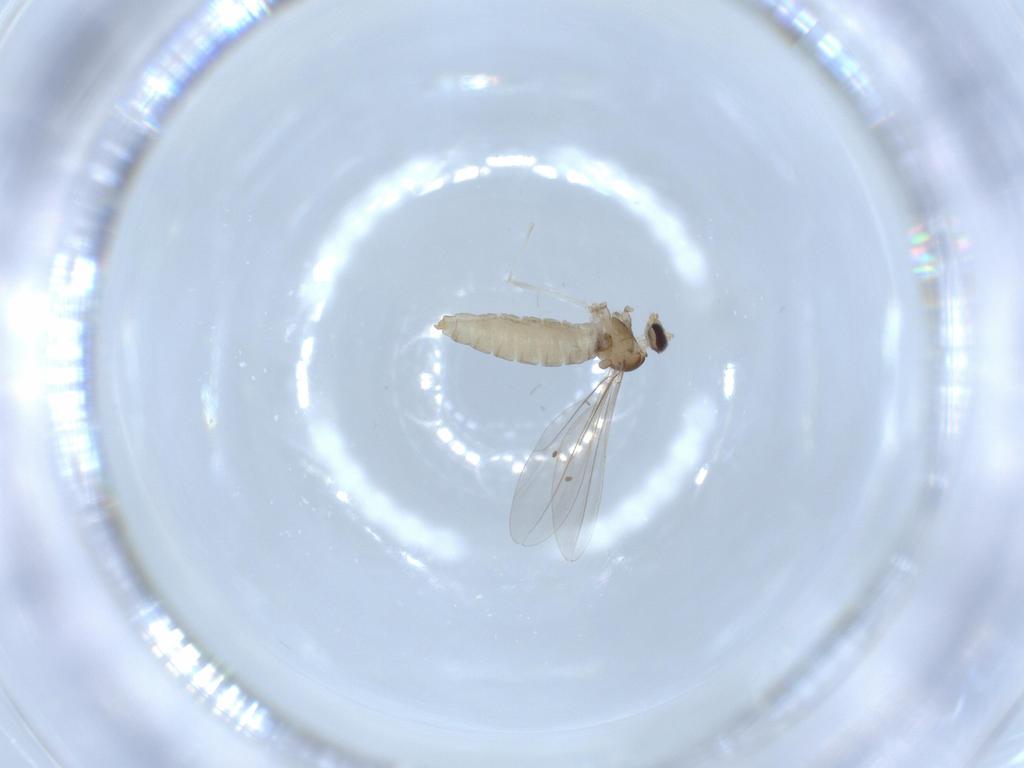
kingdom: Animalia
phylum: Arthropoda
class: Insecta
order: Diptera
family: Cecidomyiidae
